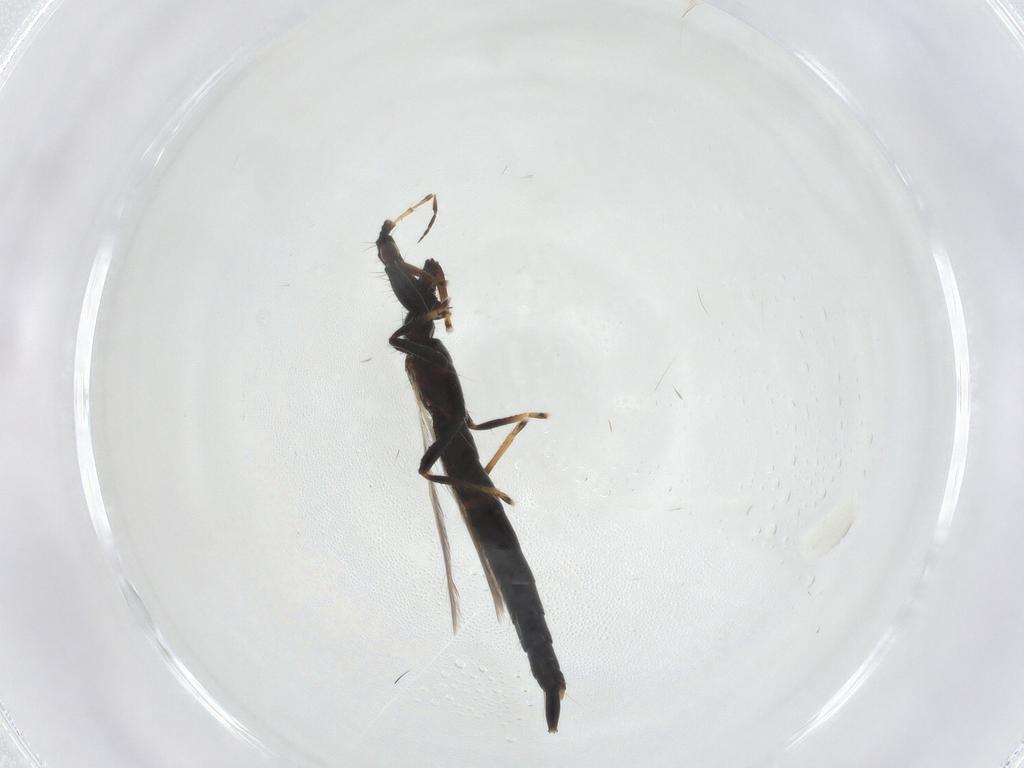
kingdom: Animalia
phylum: Arthropoda
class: Insecta
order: Thysanoptera
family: Phlaeothripidae
